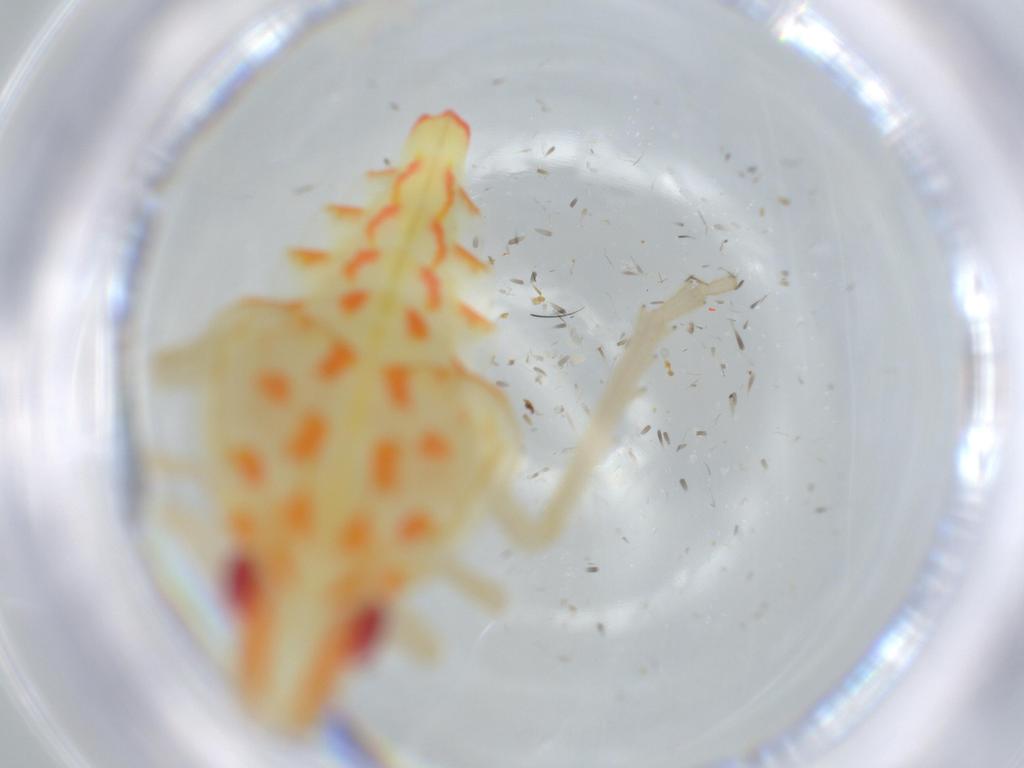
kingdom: Animalia
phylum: Arthropoda
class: Insecta
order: Hemiptera
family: Tropiduchidae
